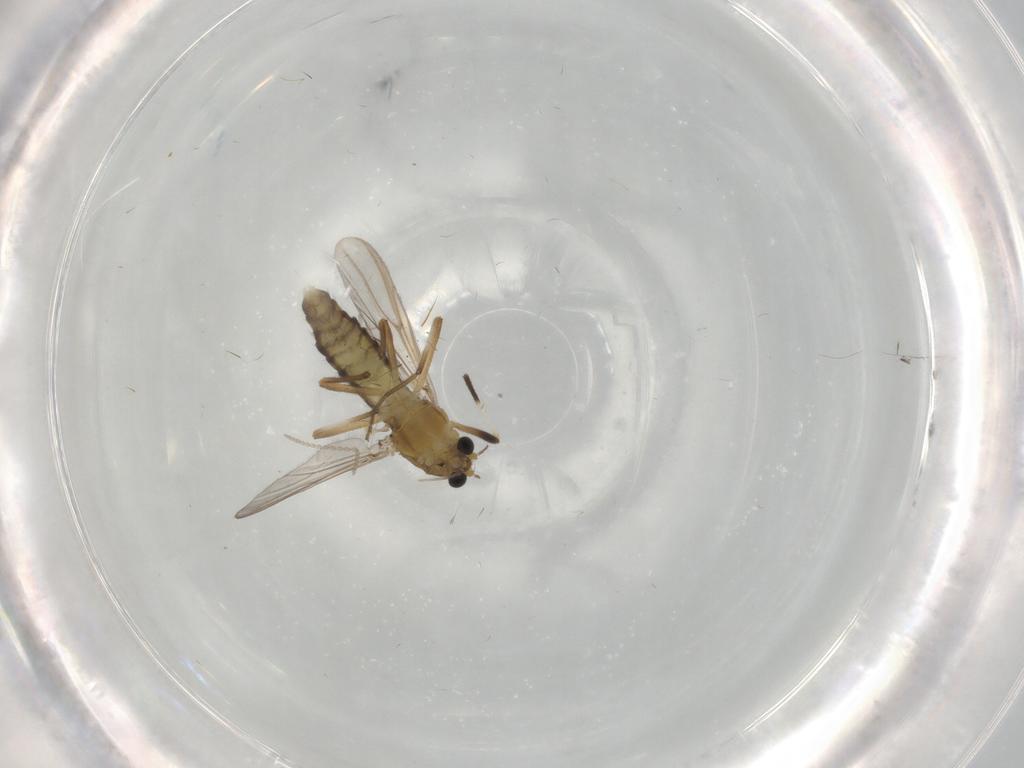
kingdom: Animalia
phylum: Arthropoda
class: Insecta
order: Diptera
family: Chironomidae
